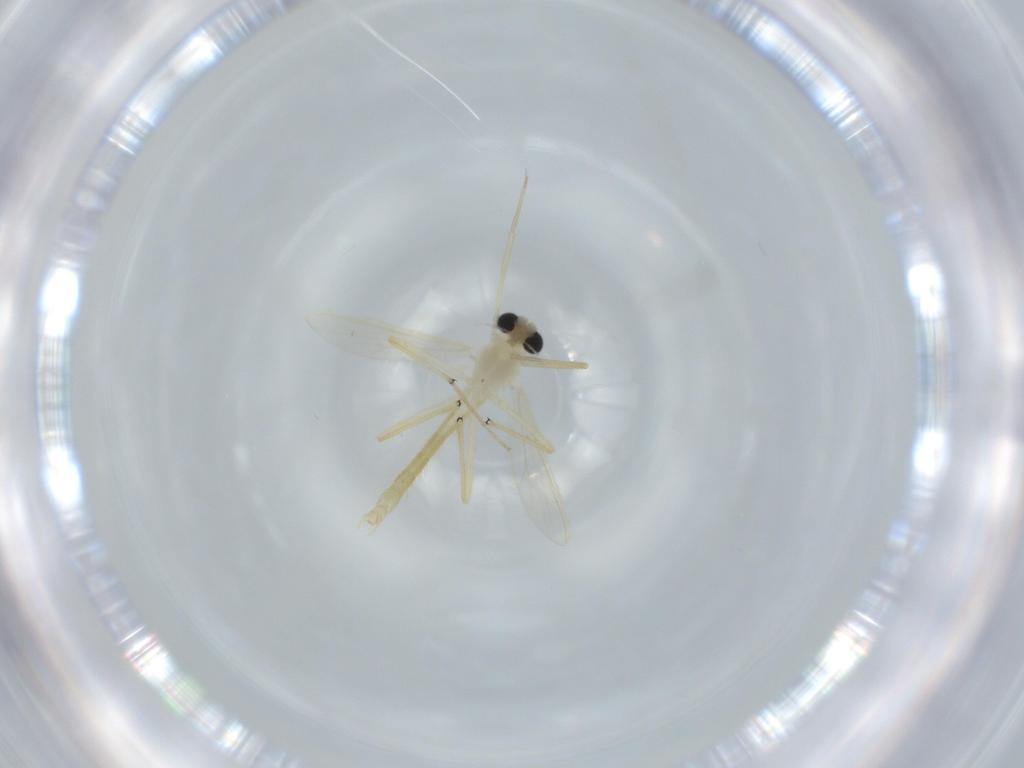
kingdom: Animalia
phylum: Arthropoda
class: Insecta
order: Diptera
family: Chironomidae
